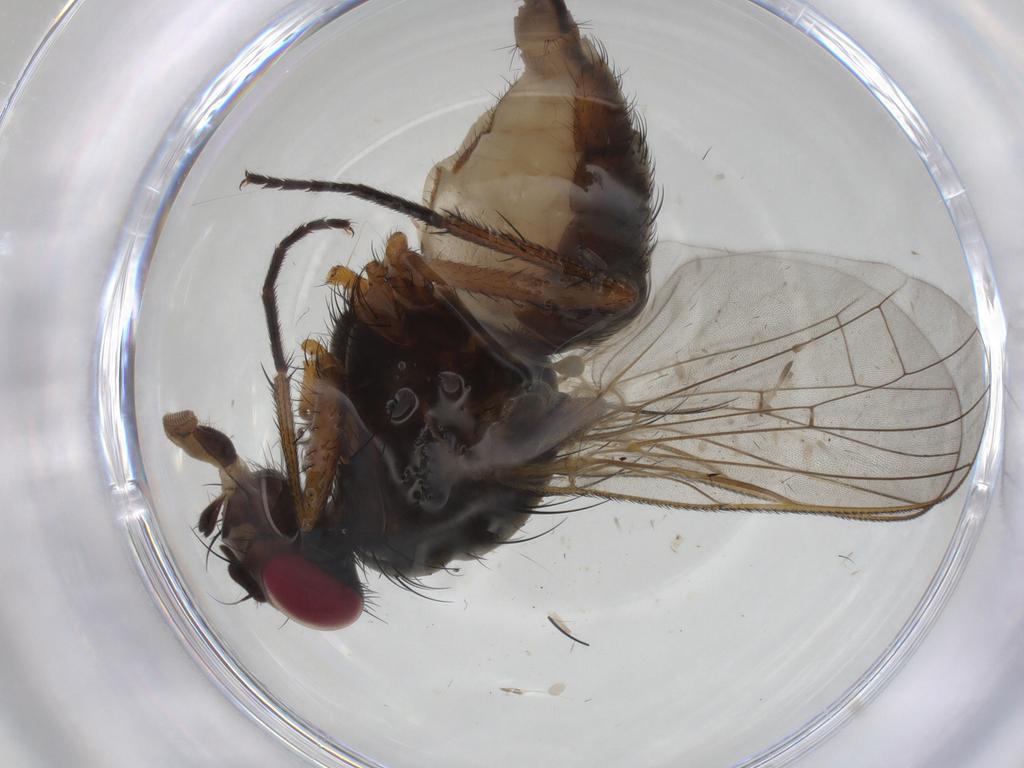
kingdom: Animalia
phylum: Arthropoda
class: Insecta
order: Diptera
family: Anthomyiidae
